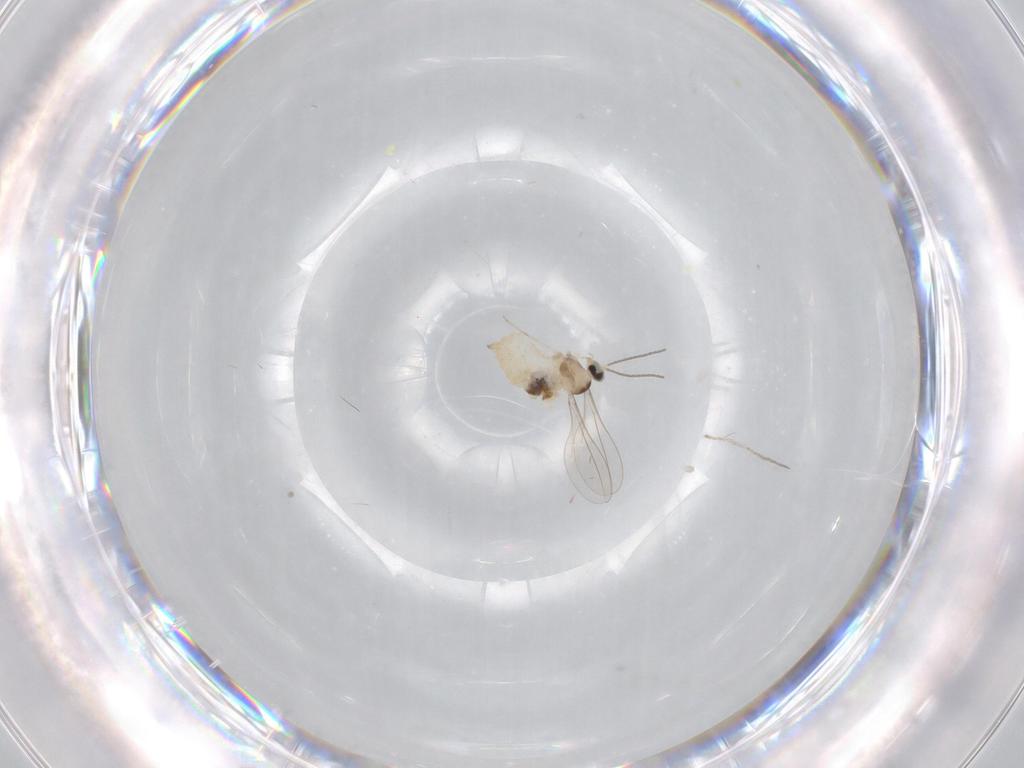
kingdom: Animalia
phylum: Arthropoda
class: Insecta
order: Diptera
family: Cecidomyiidae
